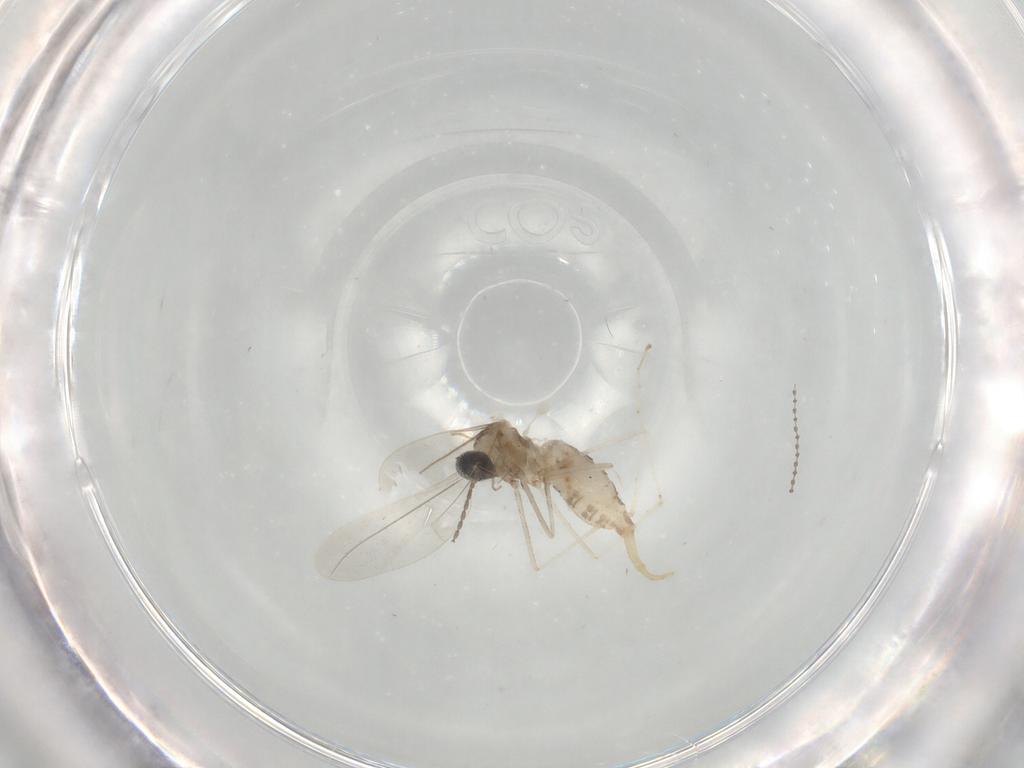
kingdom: Animalia
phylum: Arthropoda
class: Insecta
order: Diptera
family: Cecidomyiidae
